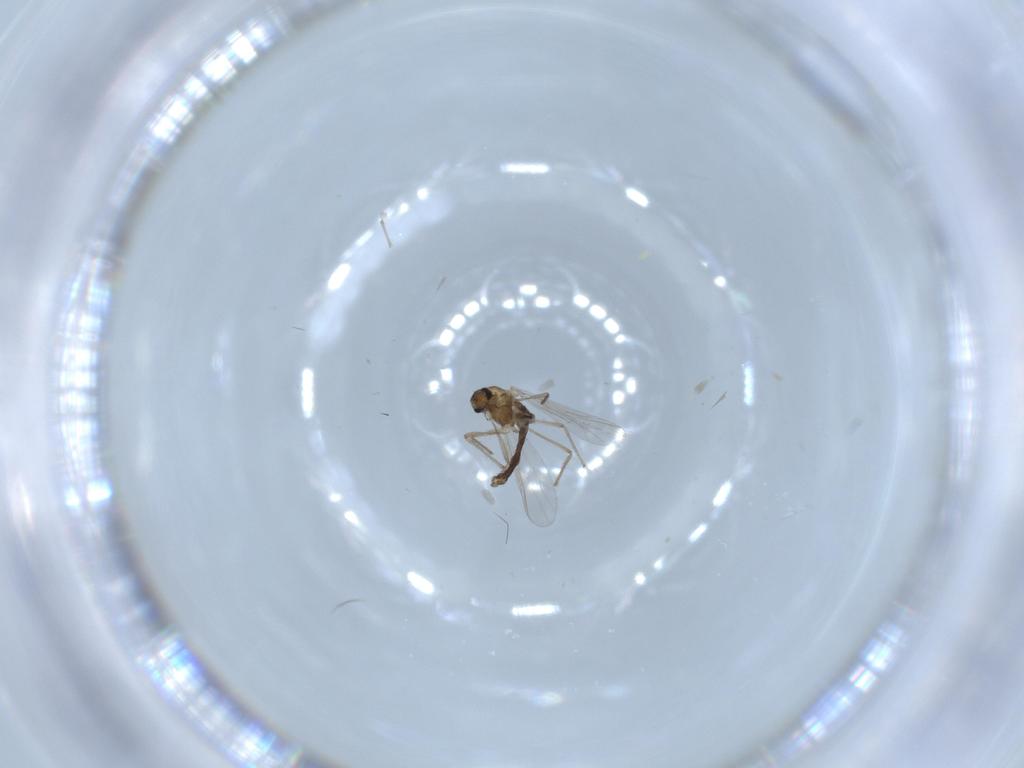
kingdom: Animalia
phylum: Arthropoda
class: Insecta
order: Diptera
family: Chironomidae
